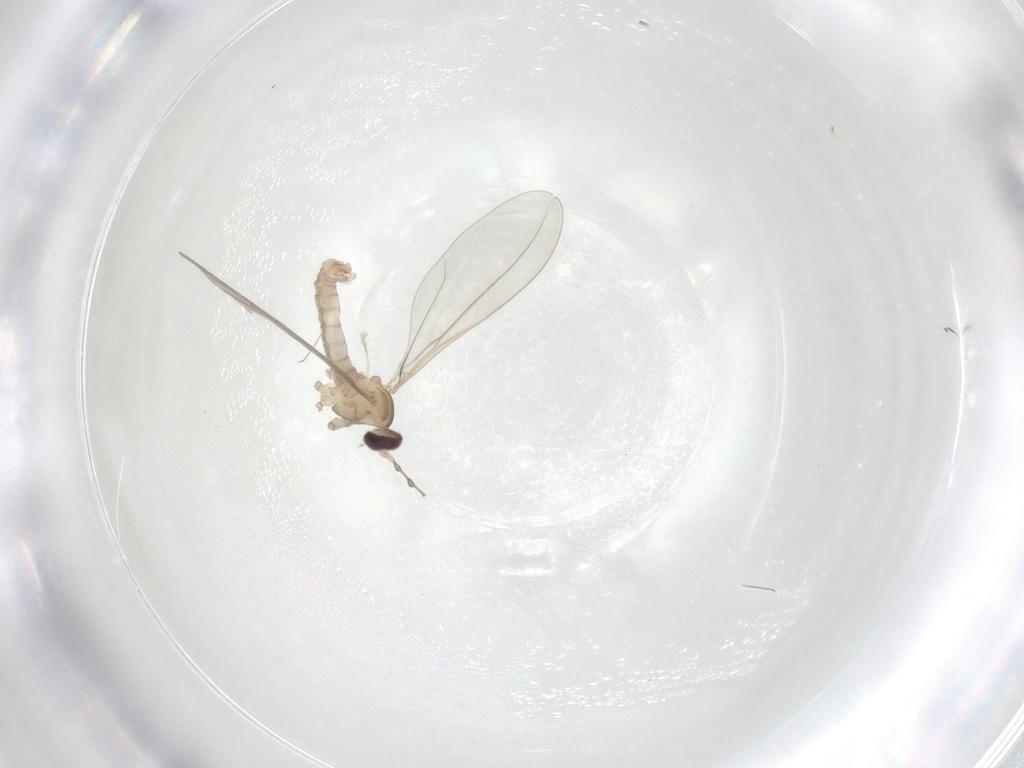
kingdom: Animalia
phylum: Arthropoda
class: Insecta
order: Diptera
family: Cecidomyiidae
